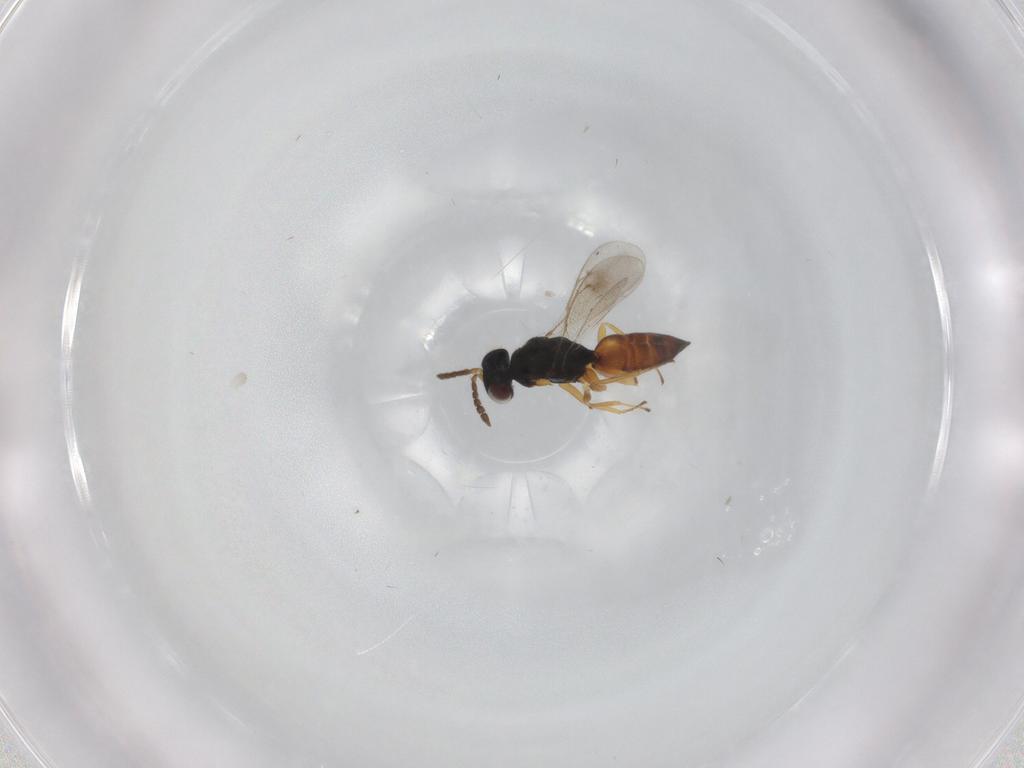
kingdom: Animalia
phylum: Arthropoda
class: Insecta
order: Hymenoptera
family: Eulophidae
